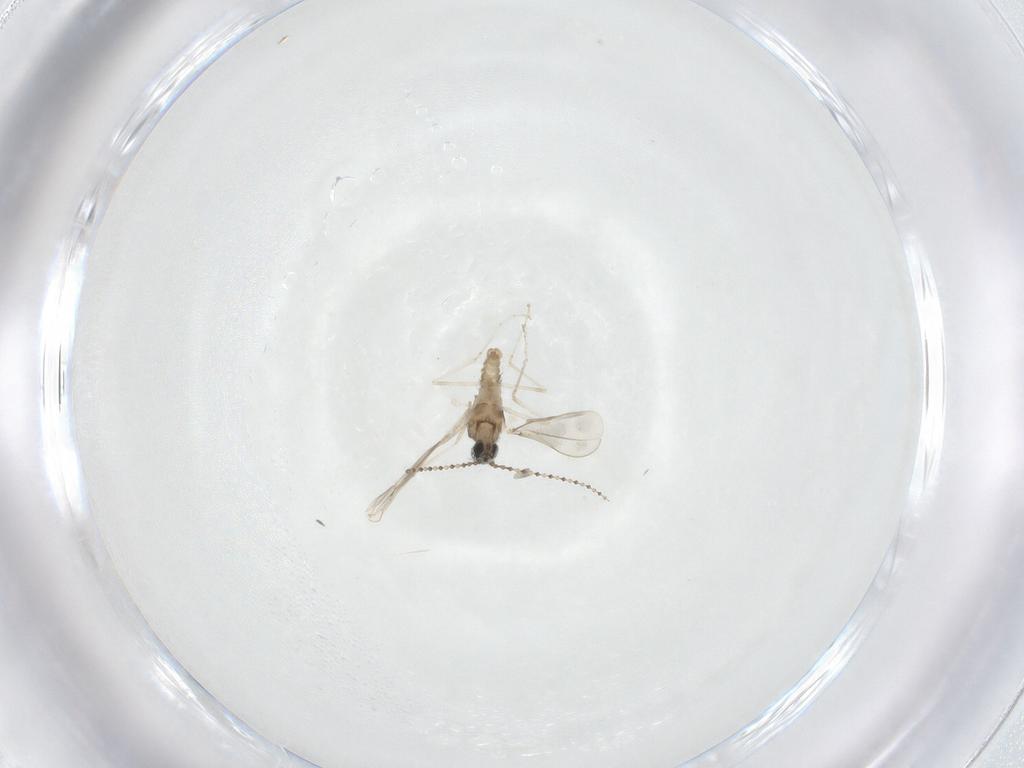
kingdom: Animalia
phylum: Arthropoda
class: Insecta
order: Diptera
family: Cecidomyiidae
